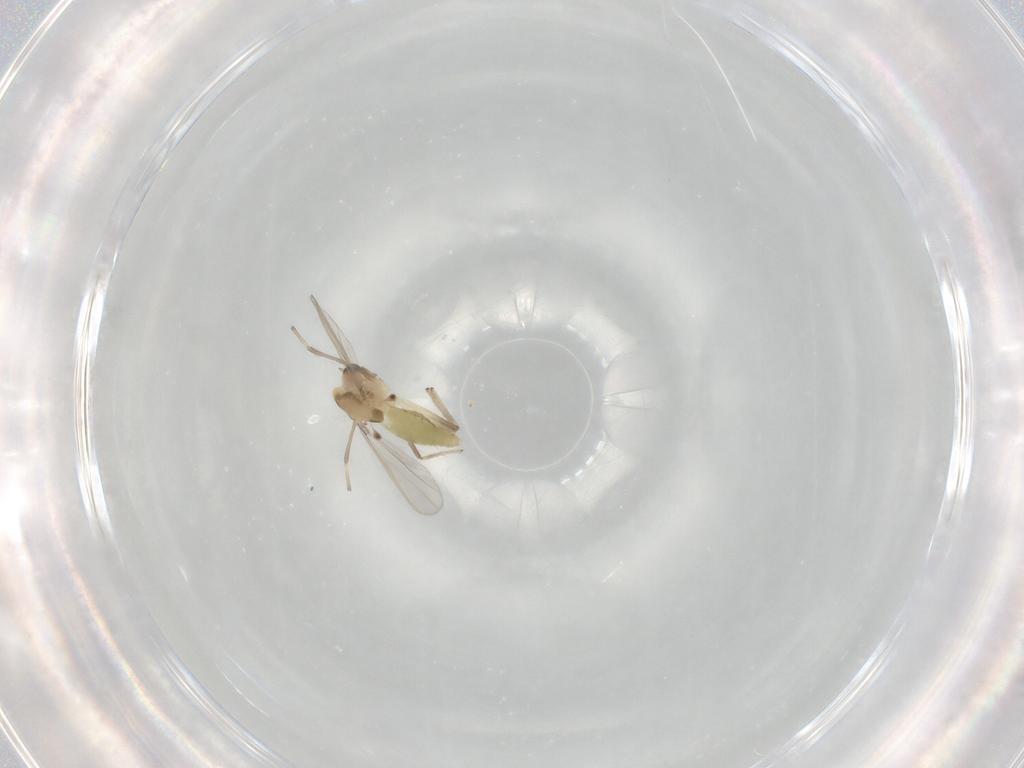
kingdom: Animalia
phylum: Arthropoda
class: Insecta
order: Diptera
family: Chironomidae
